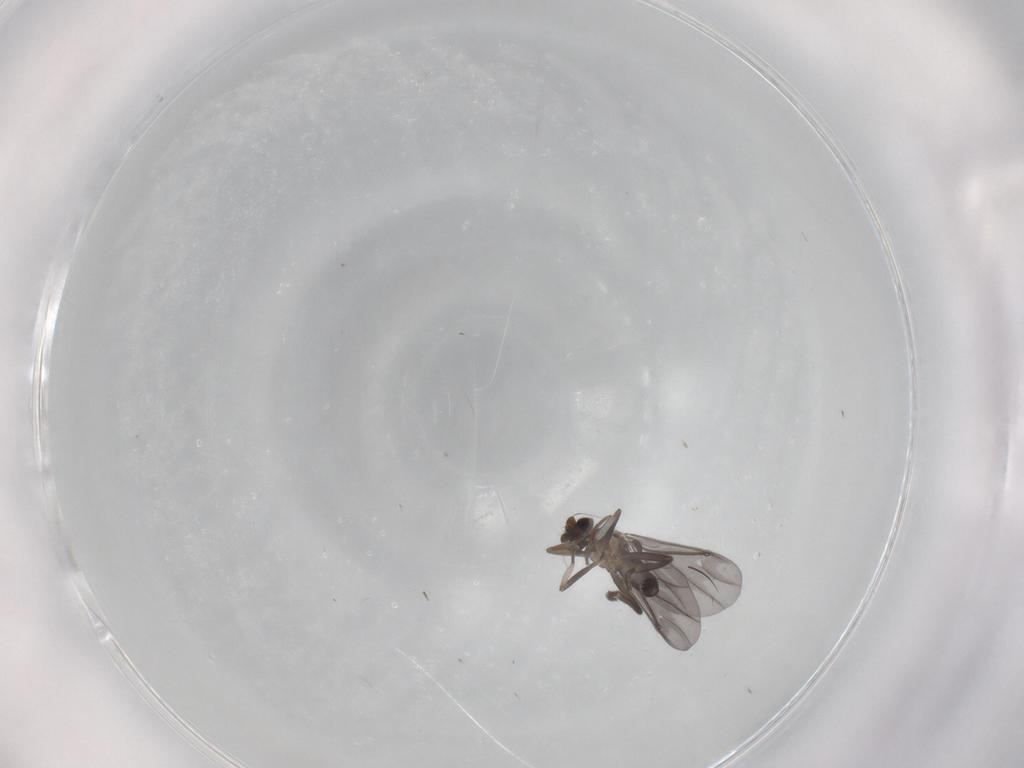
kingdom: Animalia
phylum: Arthropoda
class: Insecta
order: Diptera
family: Phoridae
